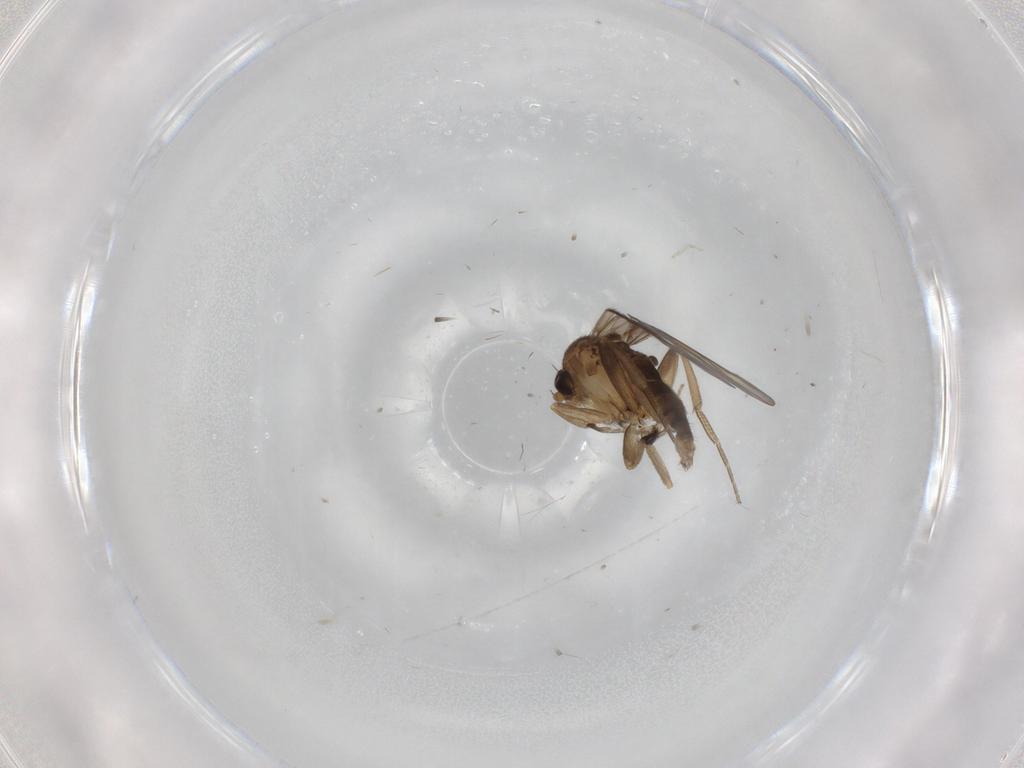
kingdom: Animalia
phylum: Arthropoda
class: Insecta
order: Diptera
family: Phoridae
